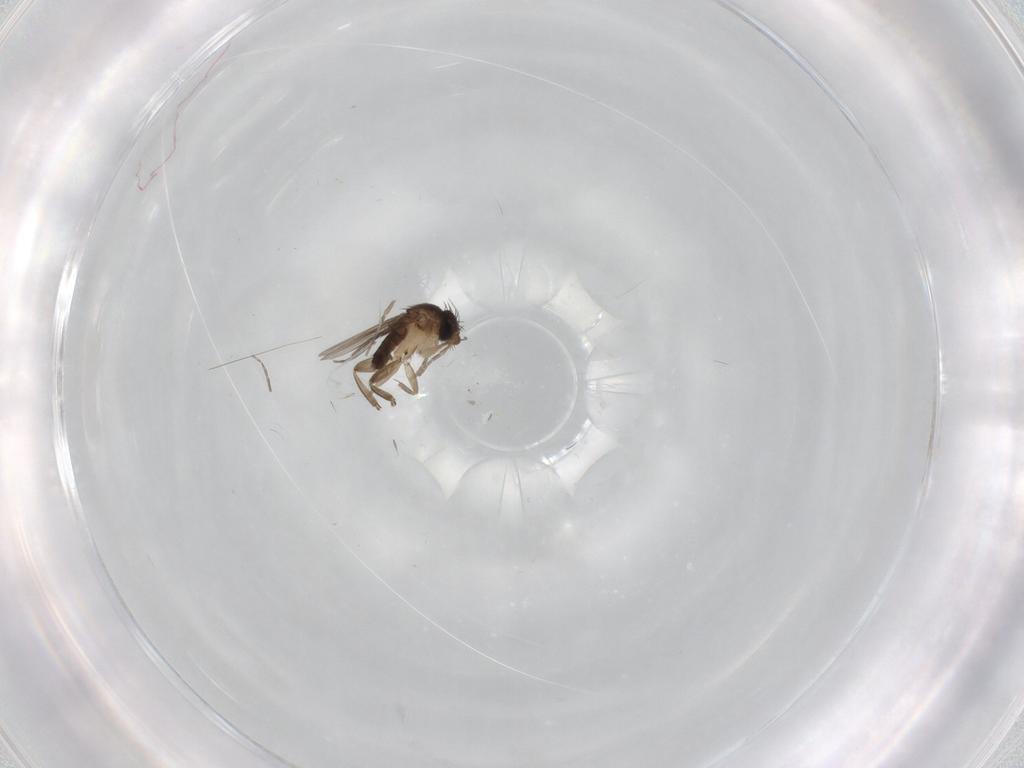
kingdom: Animalia
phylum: Arthropoda
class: Insecta
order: Diptera
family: Phoridae
